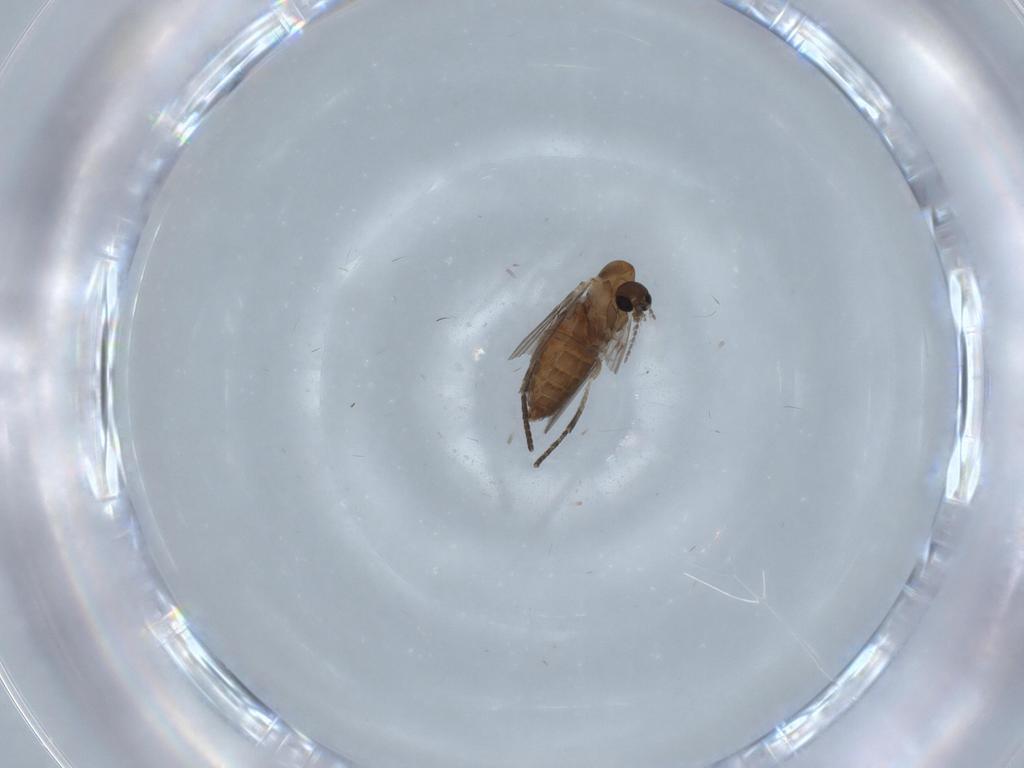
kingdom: Animalia
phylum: Arthropoda
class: Insecta
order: Diptera
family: Psychodidae
